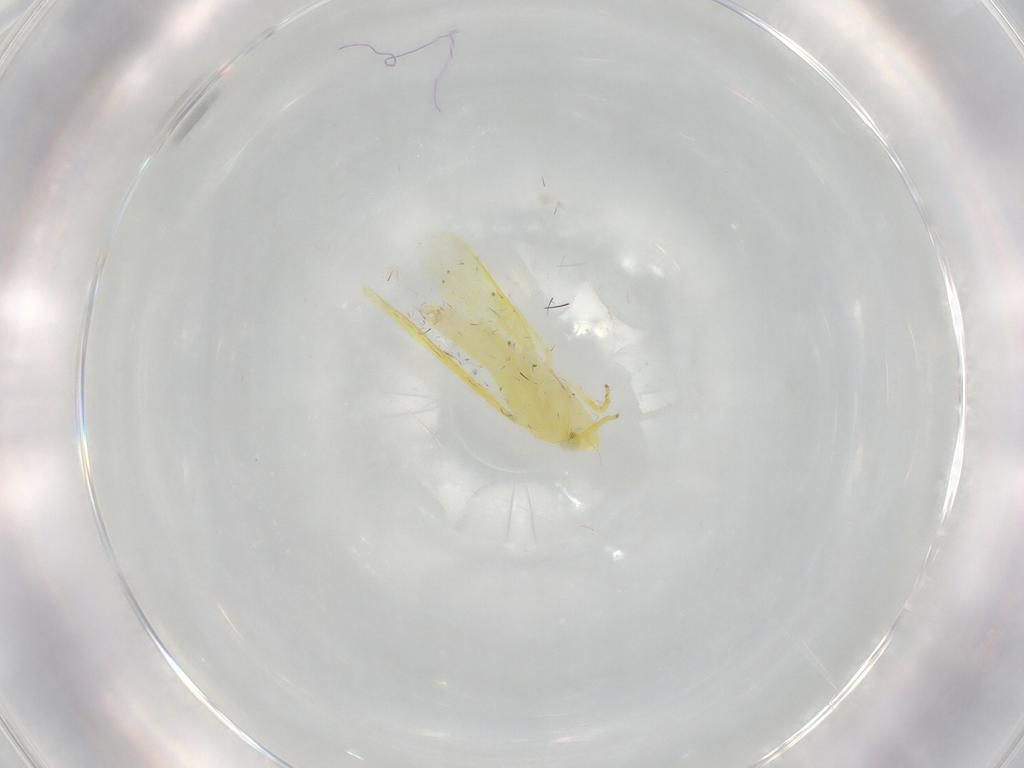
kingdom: Animalia
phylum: Arthropoda
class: Insecta
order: Hemiptera
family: Cicadellidae
